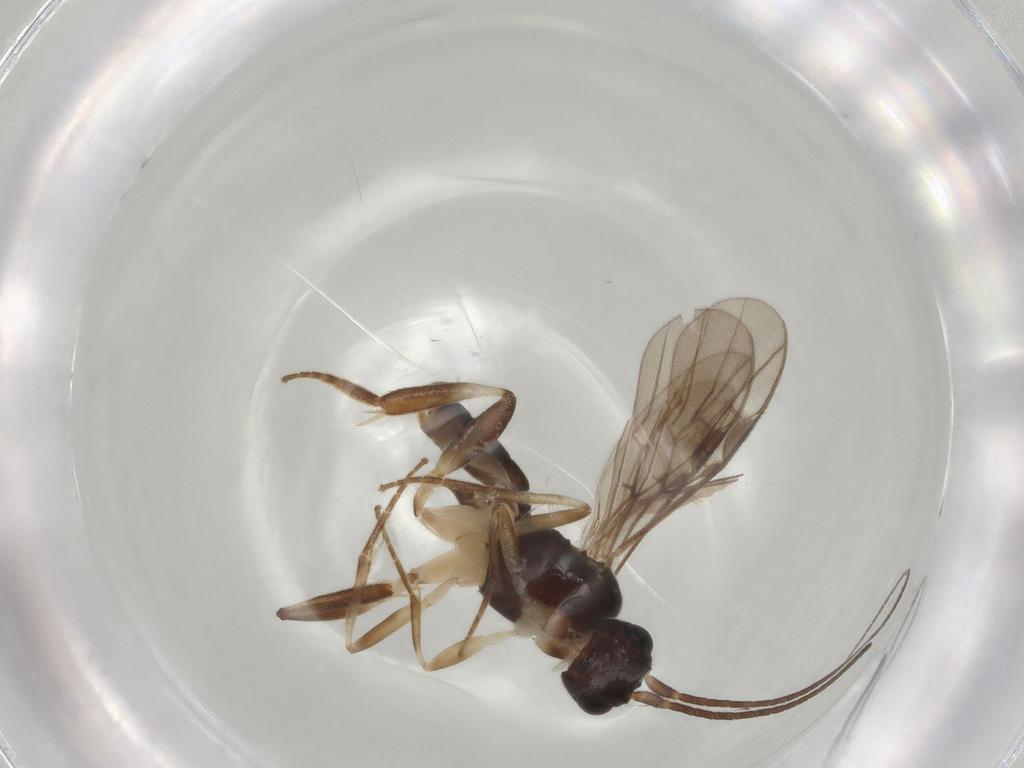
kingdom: Animalia
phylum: Arthropoda
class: Insecta
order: Hymenoptera
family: Braconidae
